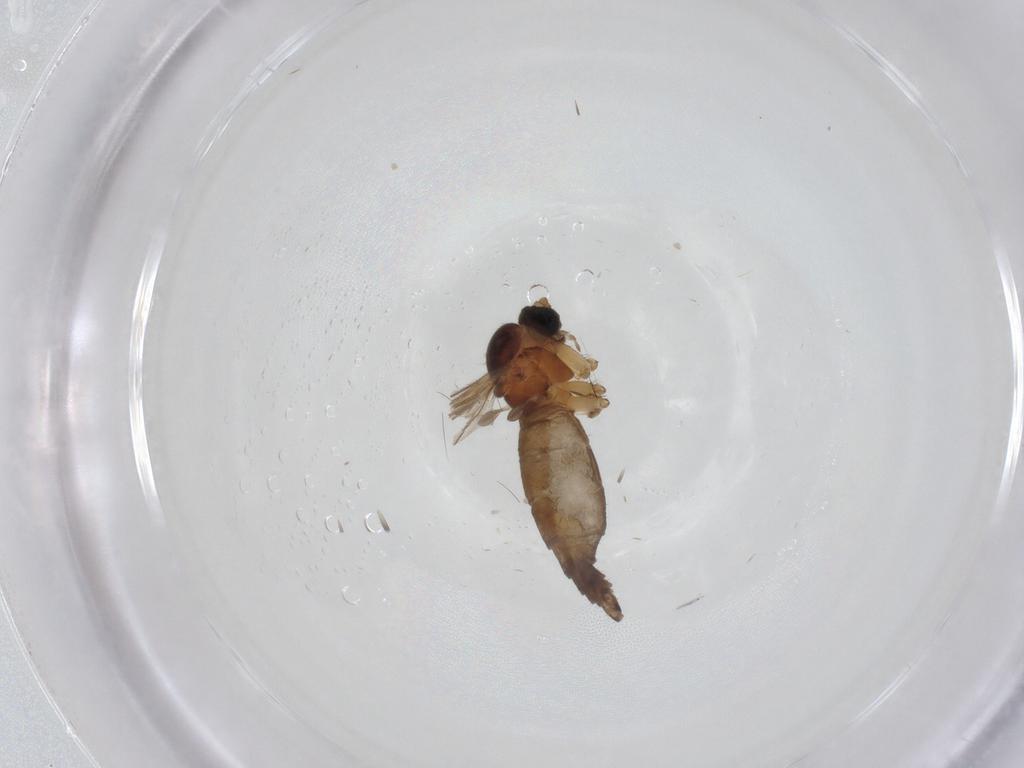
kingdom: Animalia
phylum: Arthropoda
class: Insecta
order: Diptera
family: Sciaridae
